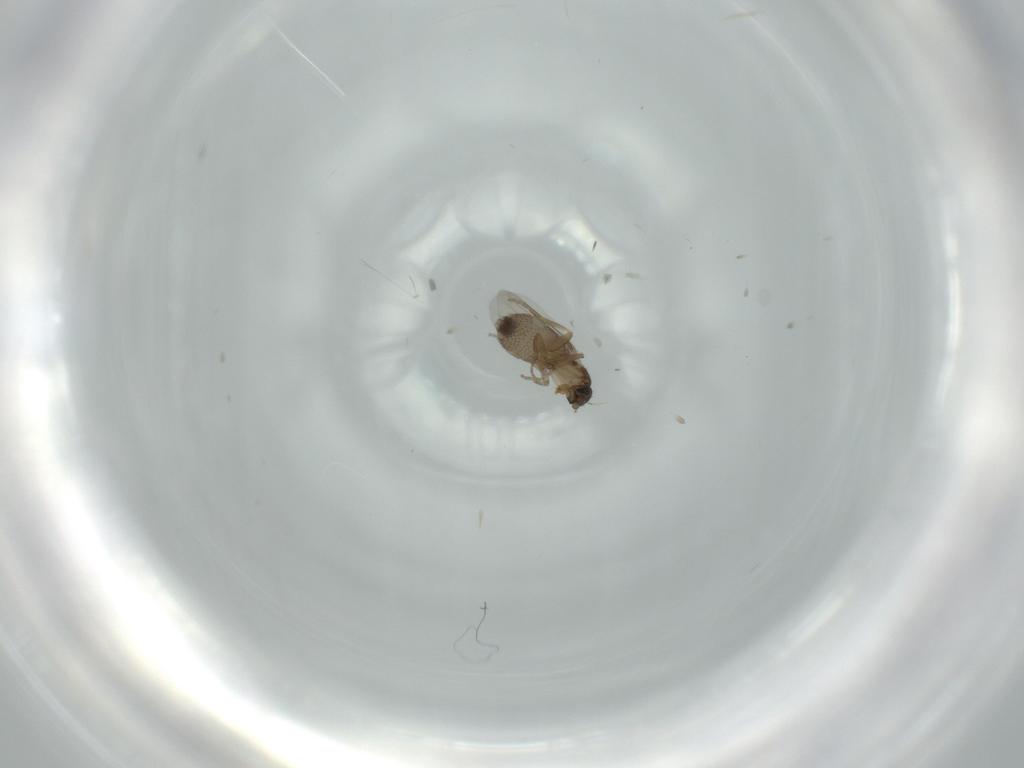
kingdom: Animalia
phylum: Arthropoda
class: Insecta
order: Diptera
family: Phoridae
